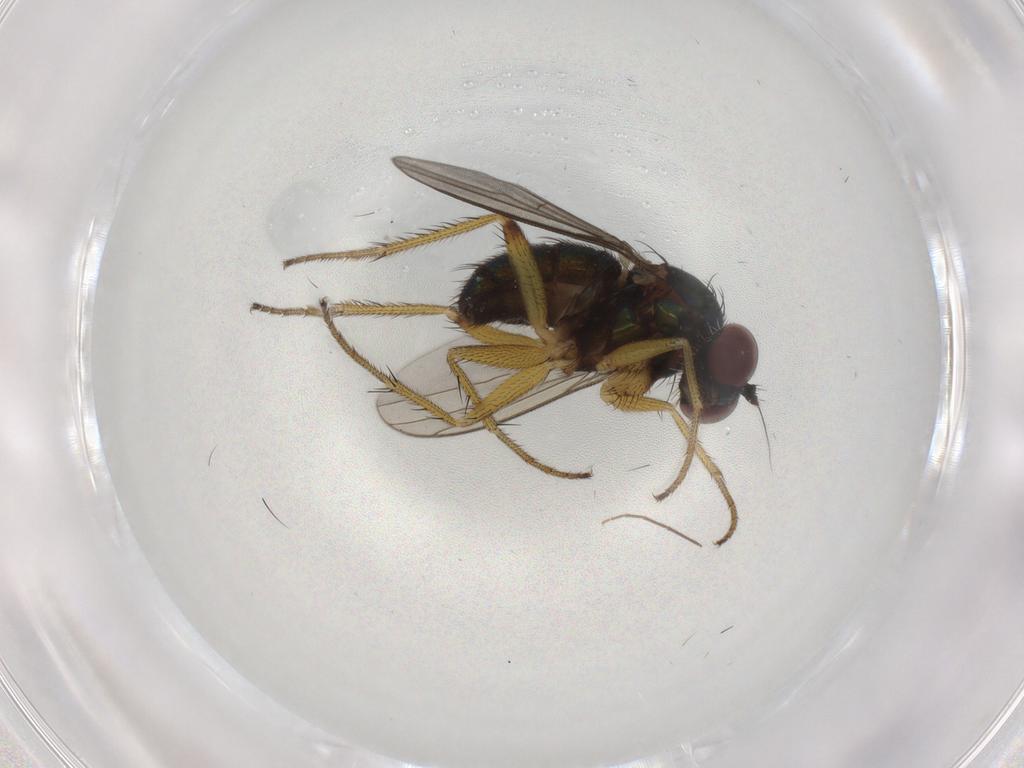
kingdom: Animalia
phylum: Arthropoda
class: Insecta
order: Diptera
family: Dolichopodidae
